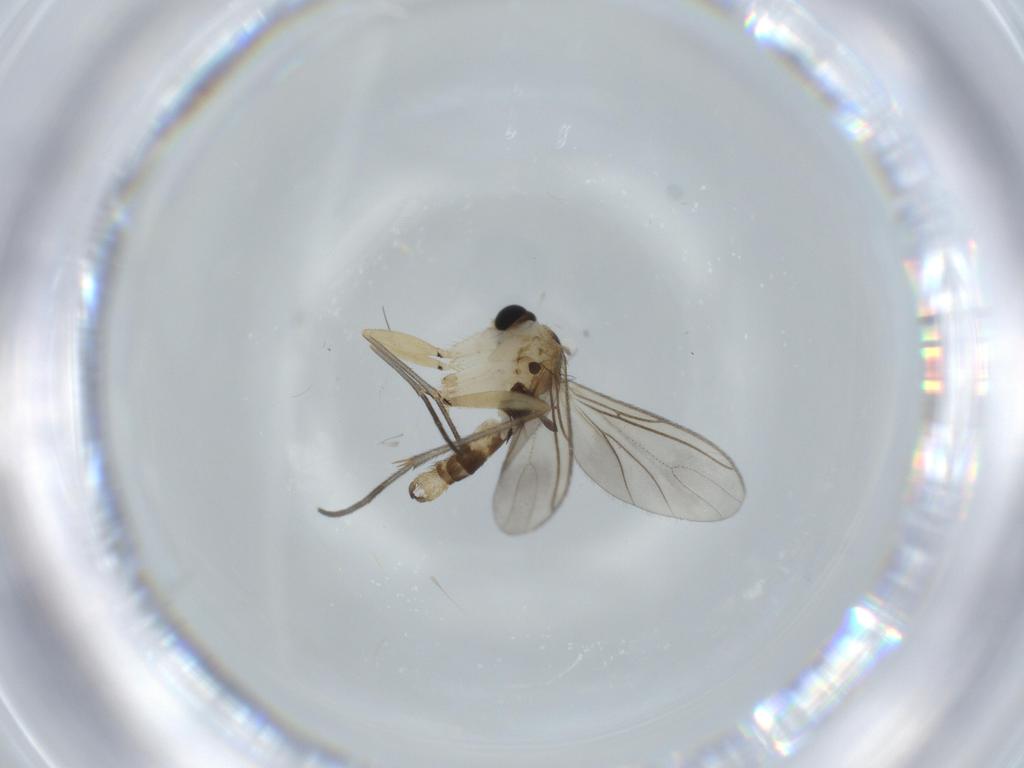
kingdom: Animalia
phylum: Arthropoda
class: Insecta
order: Diptera
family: Sciaridae
